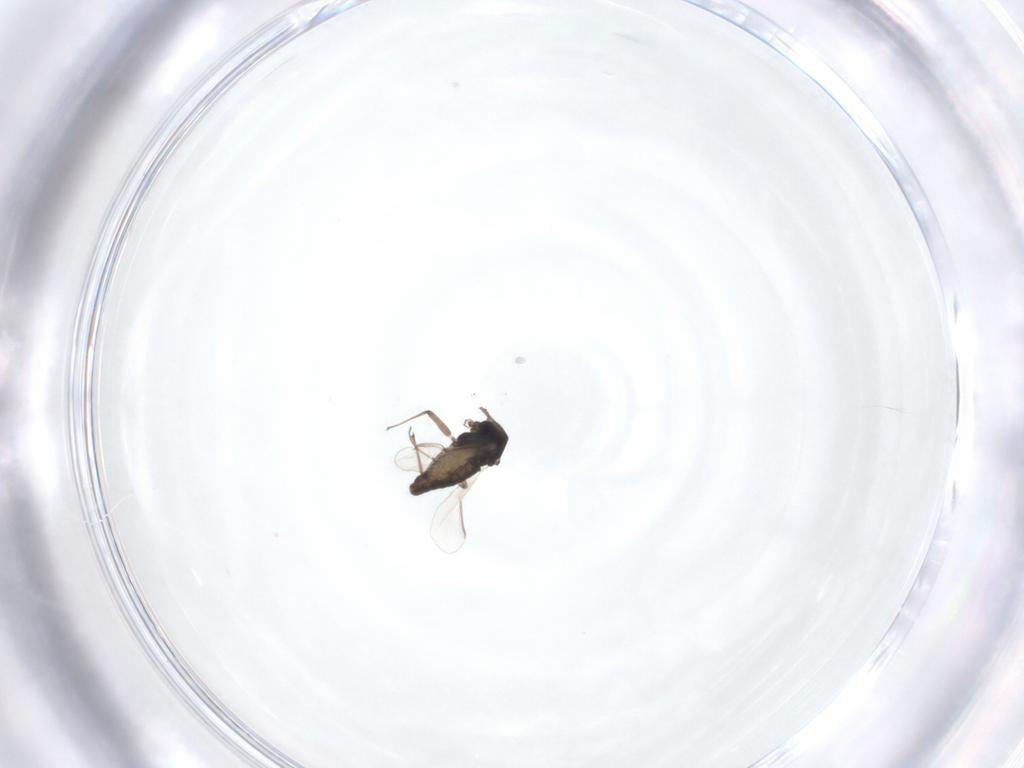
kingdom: Animalia
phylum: Arthropoda
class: Insecta
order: Diptera
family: Chironomidae
